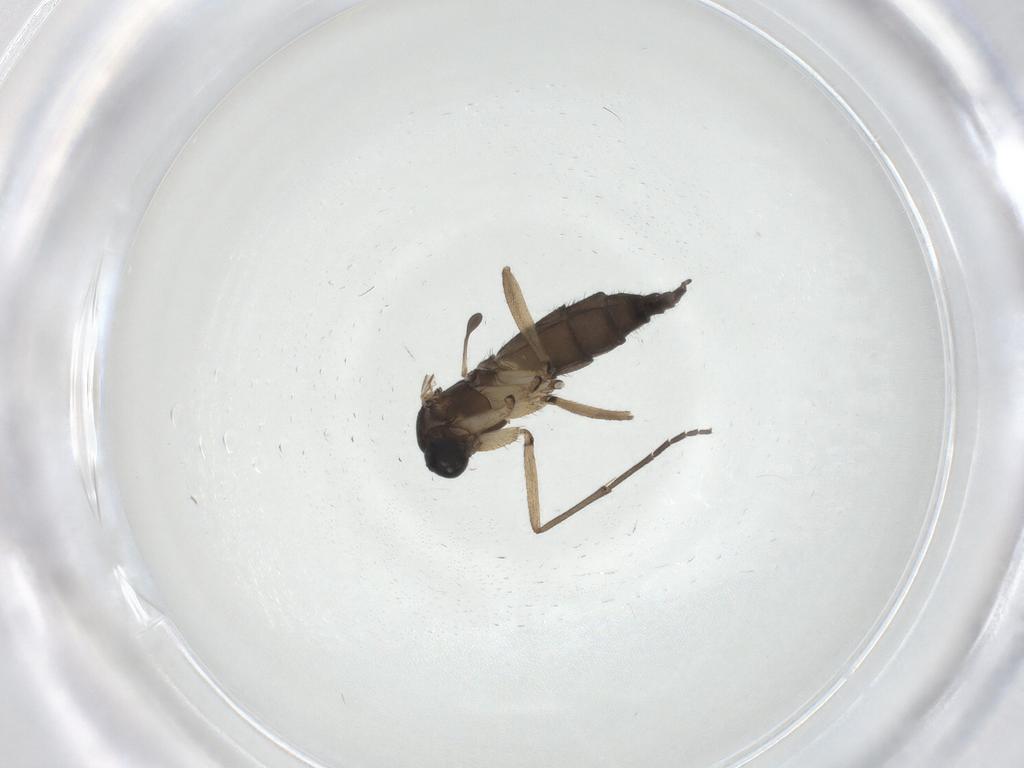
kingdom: Animalia
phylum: Arthropoda
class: Insecta
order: Diptera
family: Sciaridae
